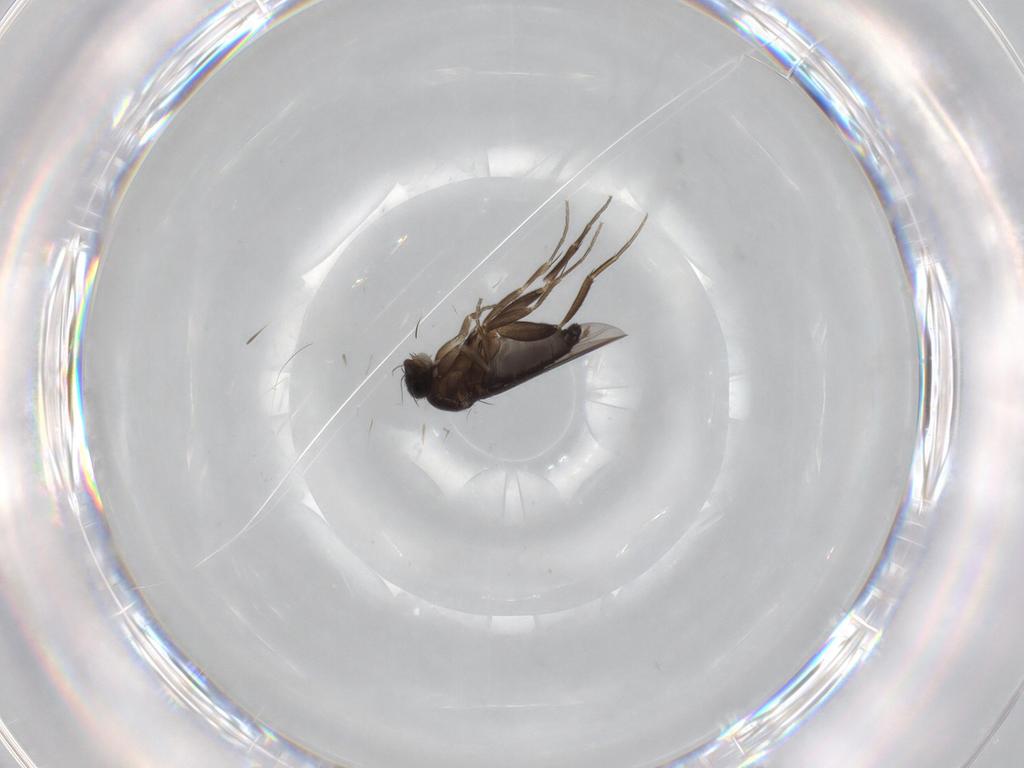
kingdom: Animalia
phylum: Arthropoda
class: Insecta
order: Diptera
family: Phoridae
